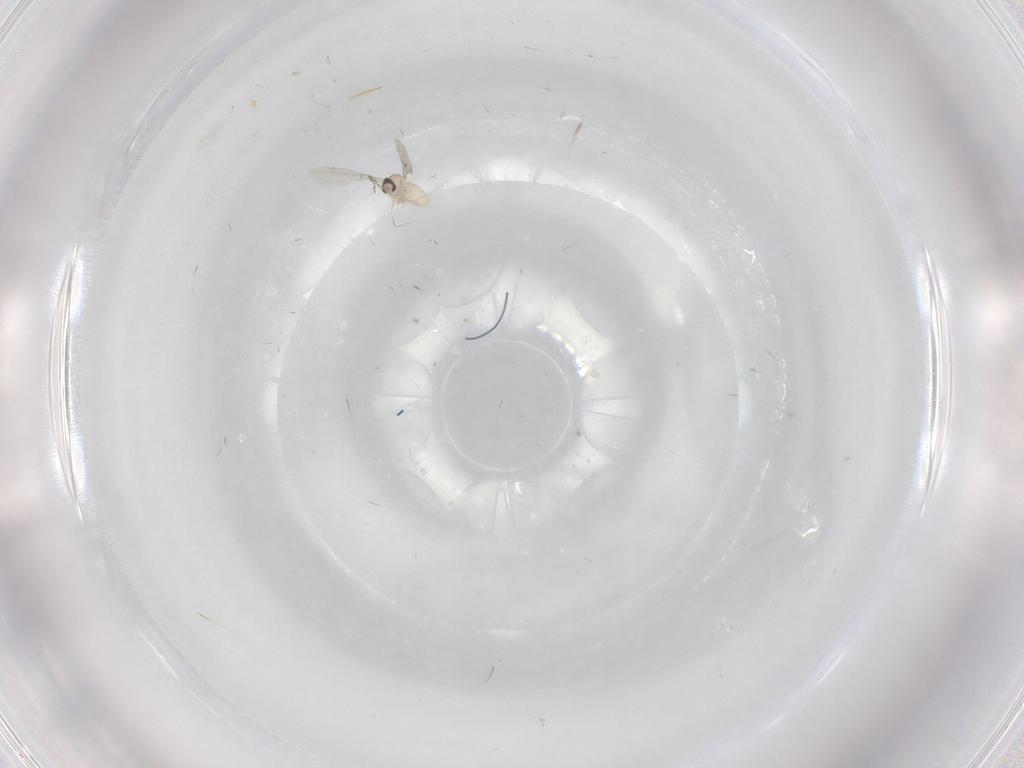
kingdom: Animalia
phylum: Arthropoda
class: Insecta
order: Diptera
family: Cecidomyiidae
